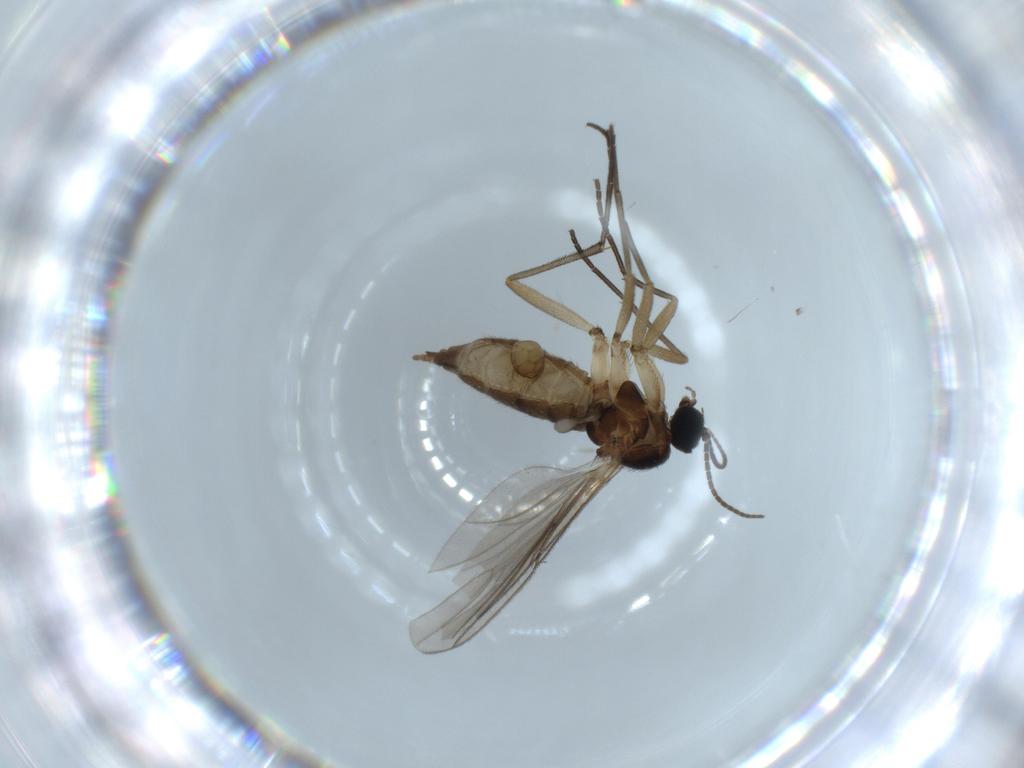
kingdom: Animalia
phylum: Arthropoda
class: Insecta
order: Diptera
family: Sciaridae
